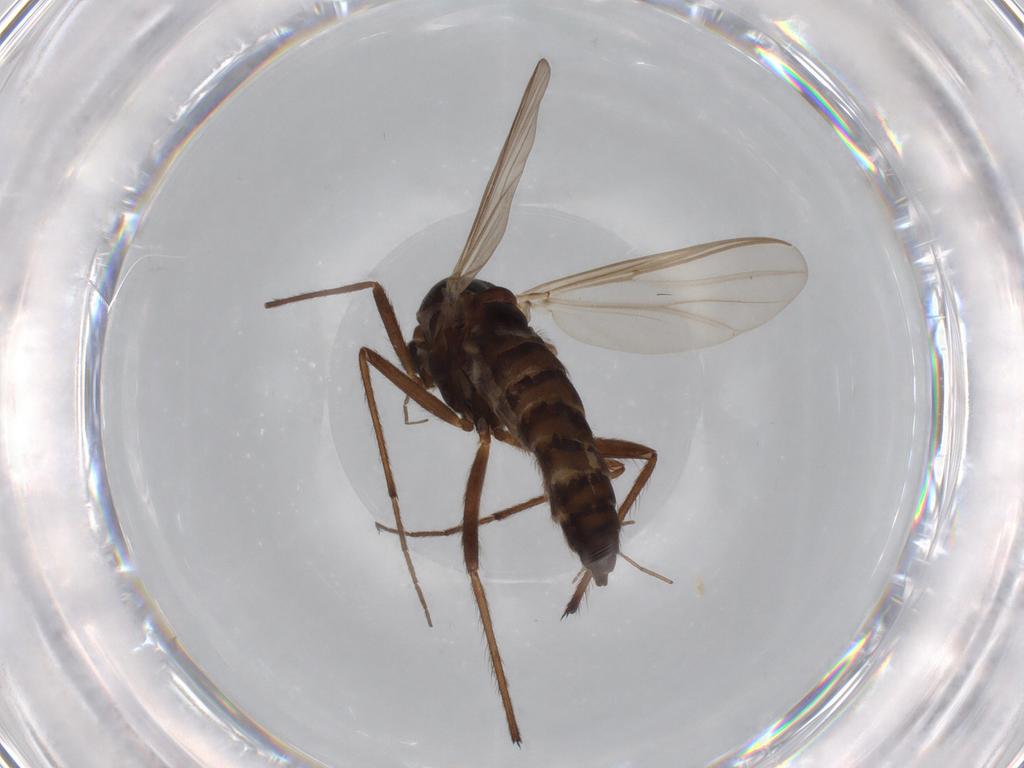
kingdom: Animalia
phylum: Arthropoda
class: Insecta
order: Diptera
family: Chironomidae
